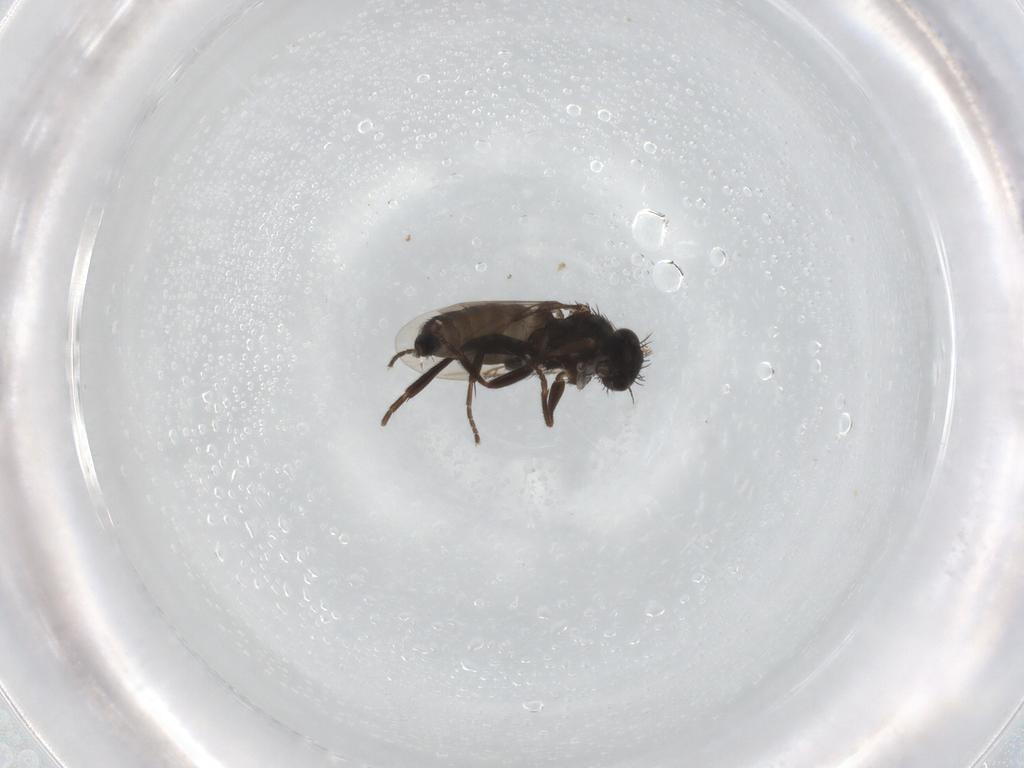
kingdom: Animalia
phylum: Arthropoda
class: Insecta
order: Diptera
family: Phoridae
